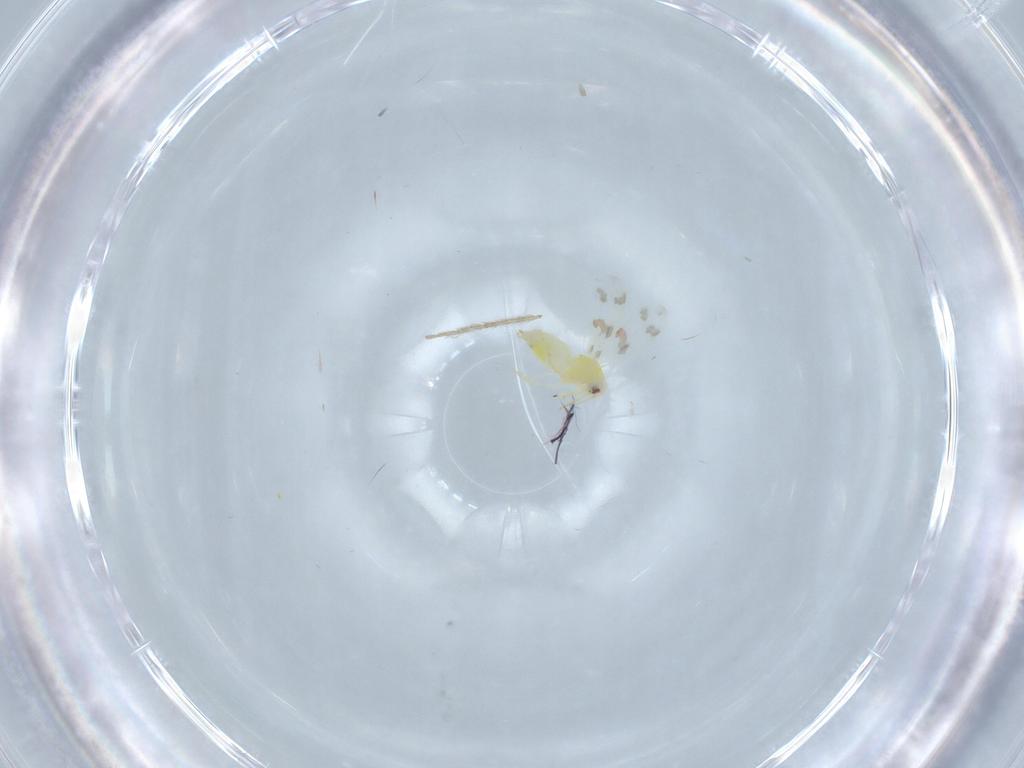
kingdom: Animalia
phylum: Arthropoda
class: Insecta
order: Hemiptera
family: Aleyrodidae
